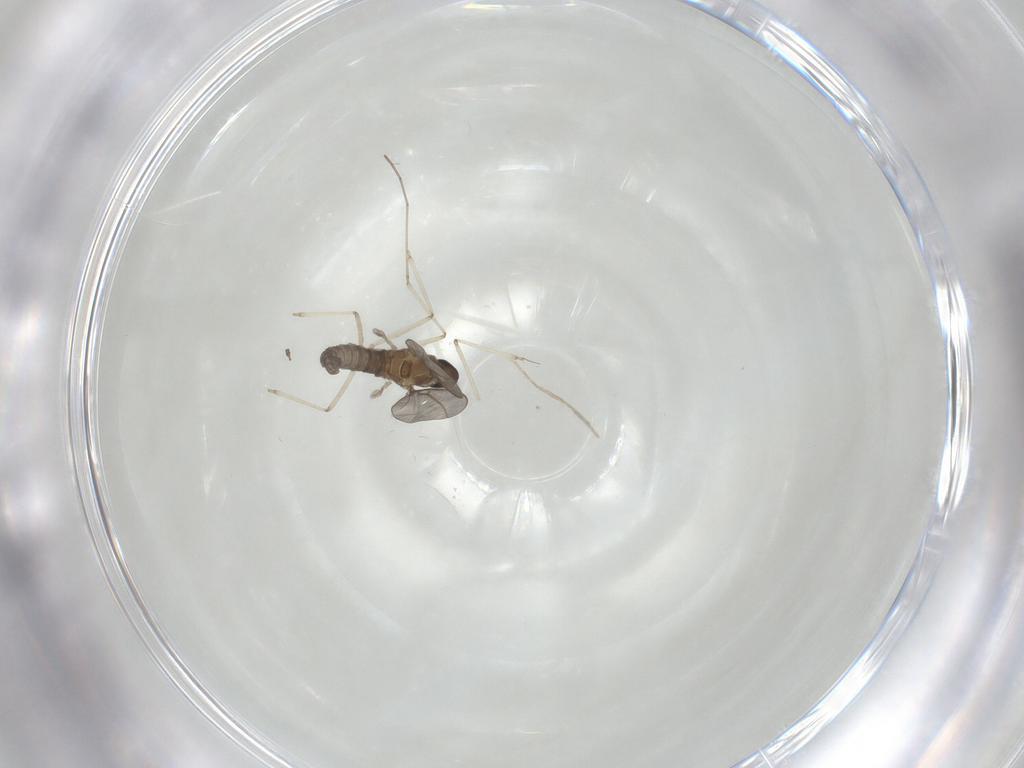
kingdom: Animalia
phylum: Arthropoda
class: Insecta
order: Diptera
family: Cecidomyiidae
